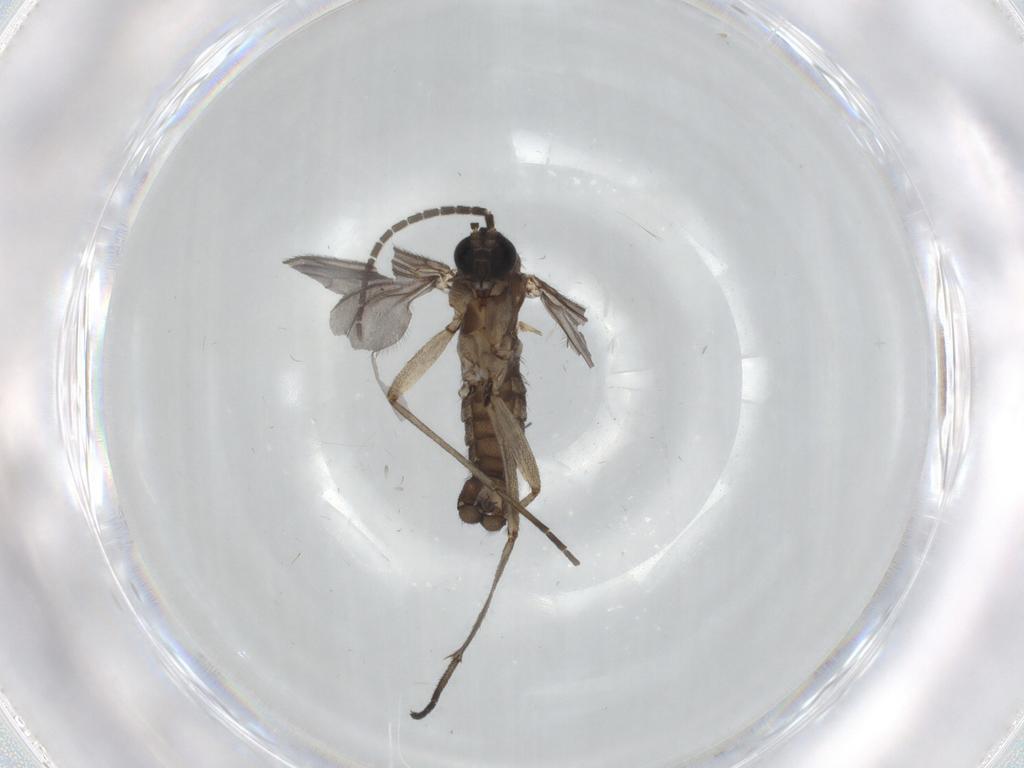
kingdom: Animalia
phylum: Arthropoda
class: Insecta
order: Diptera
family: Sciaridae
